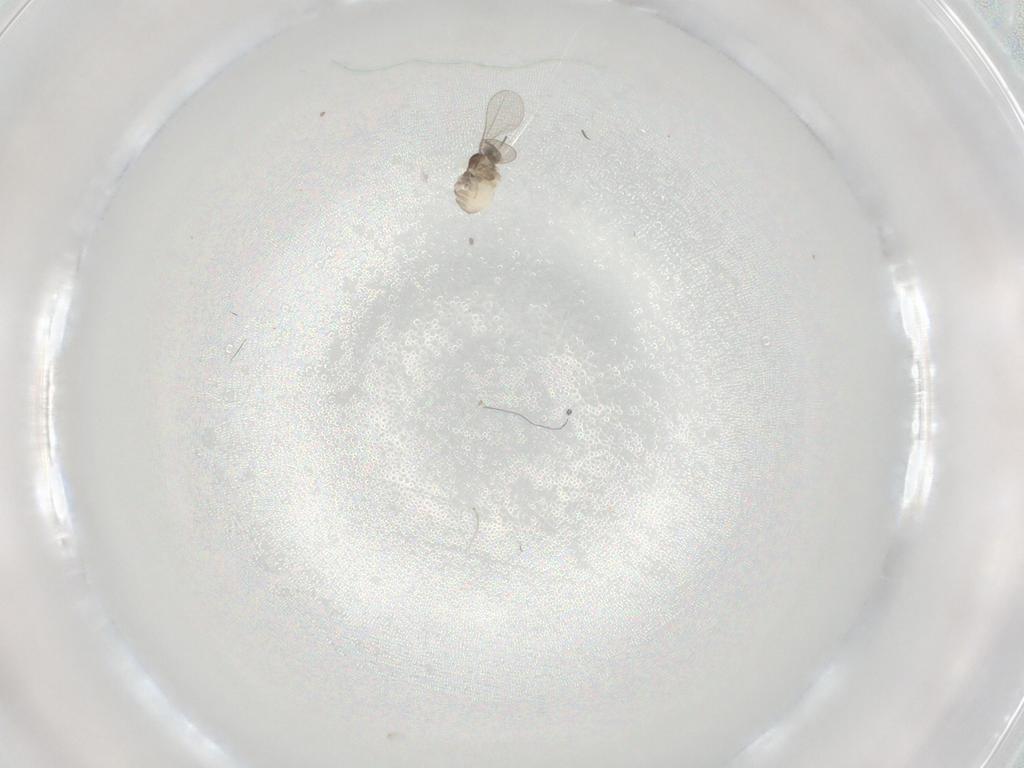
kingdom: Animalia
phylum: Arthropoda
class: Insecta
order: Diptera
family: Cecidomyiidae
